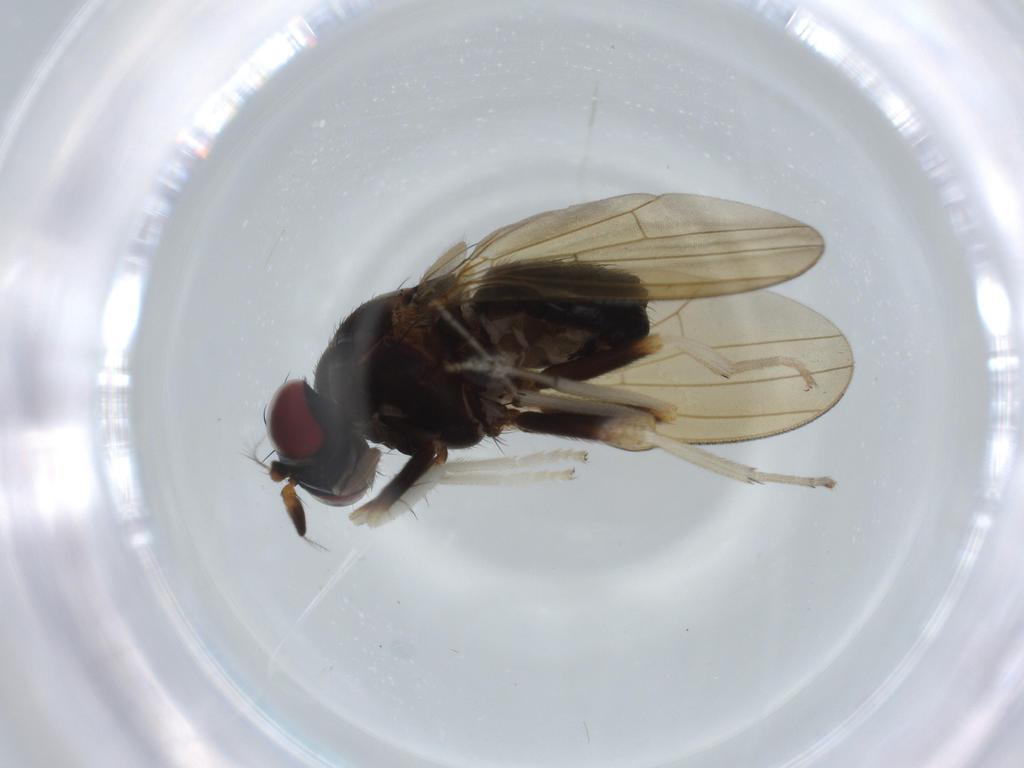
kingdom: Animalia
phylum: Arthropoda
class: Insecta
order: Diptera
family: Lauxaniidae
